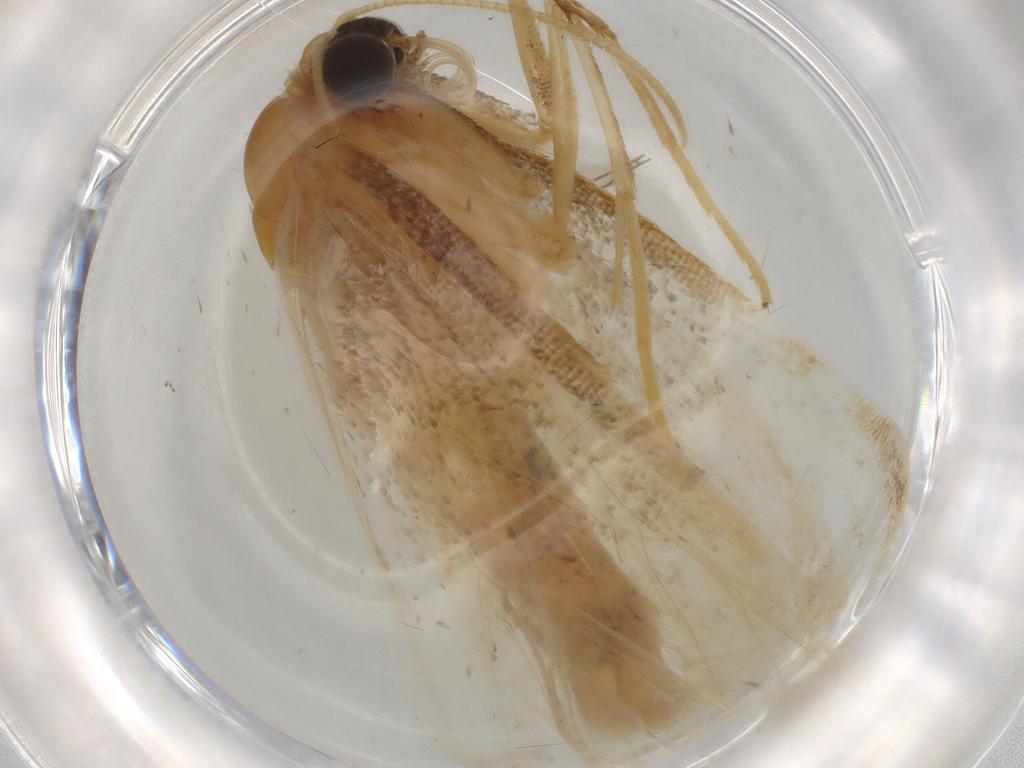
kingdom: Animalia
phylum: Arthropoda
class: Insecta
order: Lepidoptera
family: Geometridae
